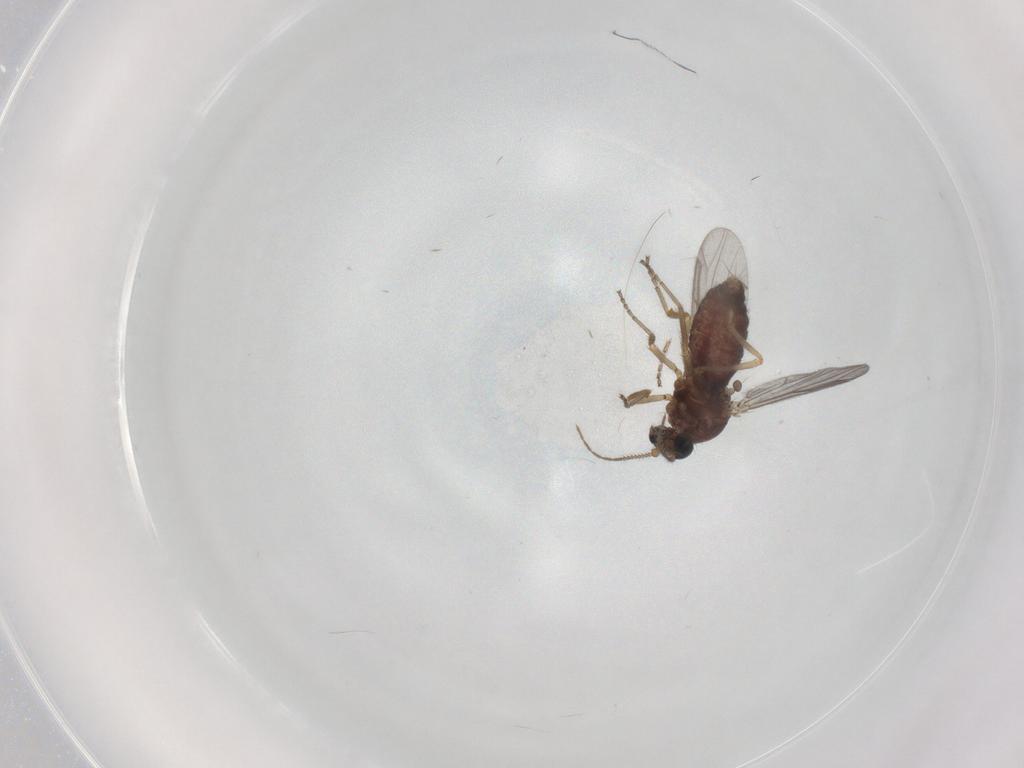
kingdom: Animalia
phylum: Arthropoda
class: Insecta
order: Diptera
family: Ceratopogonidae
